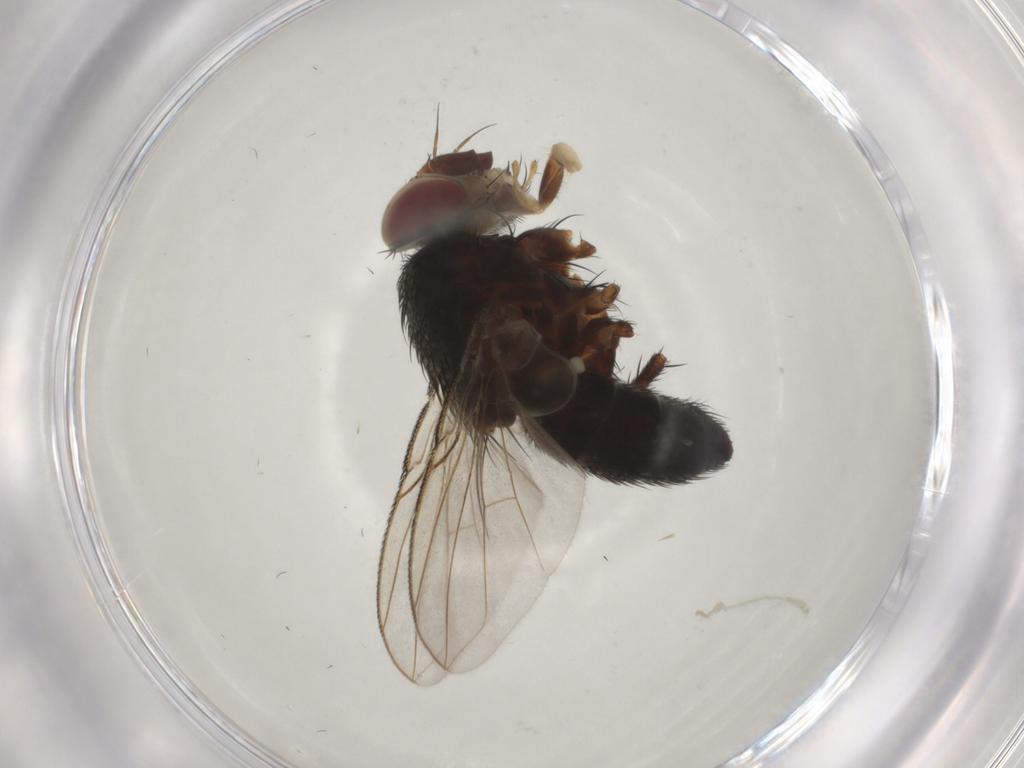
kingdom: Animalia
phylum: Arthropoda
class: Insecta
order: Diptera
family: Tachinidae
